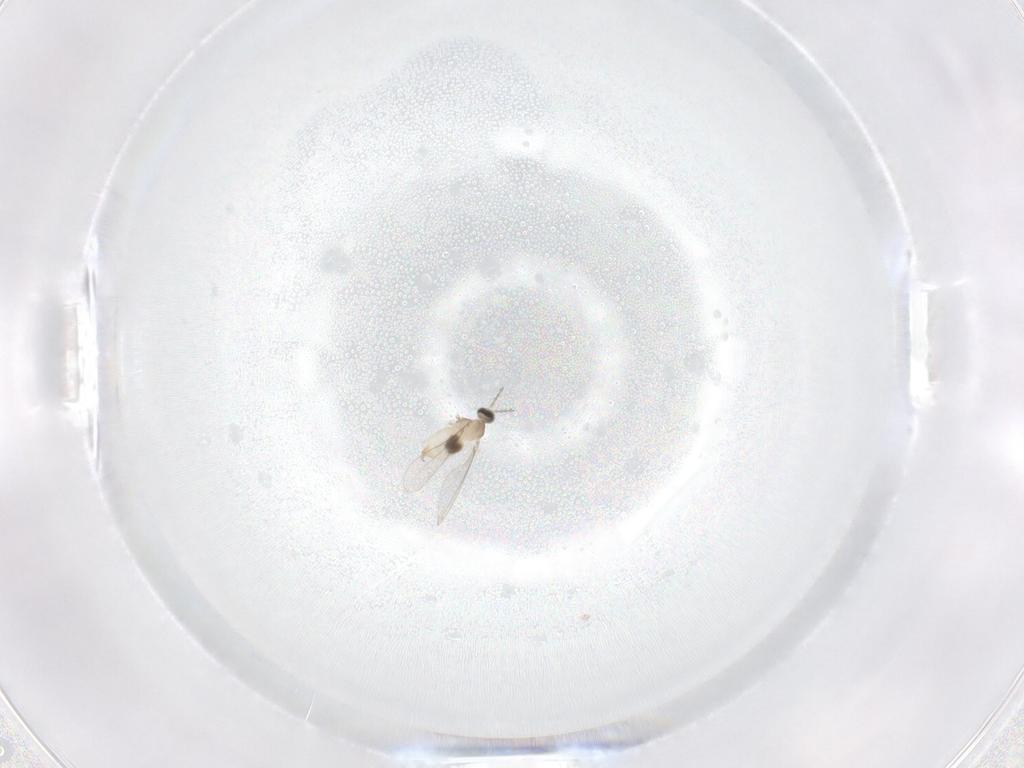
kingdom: Animalia
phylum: Arthropoda
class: Insecta
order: Diptera
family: Cecidomyiidae
